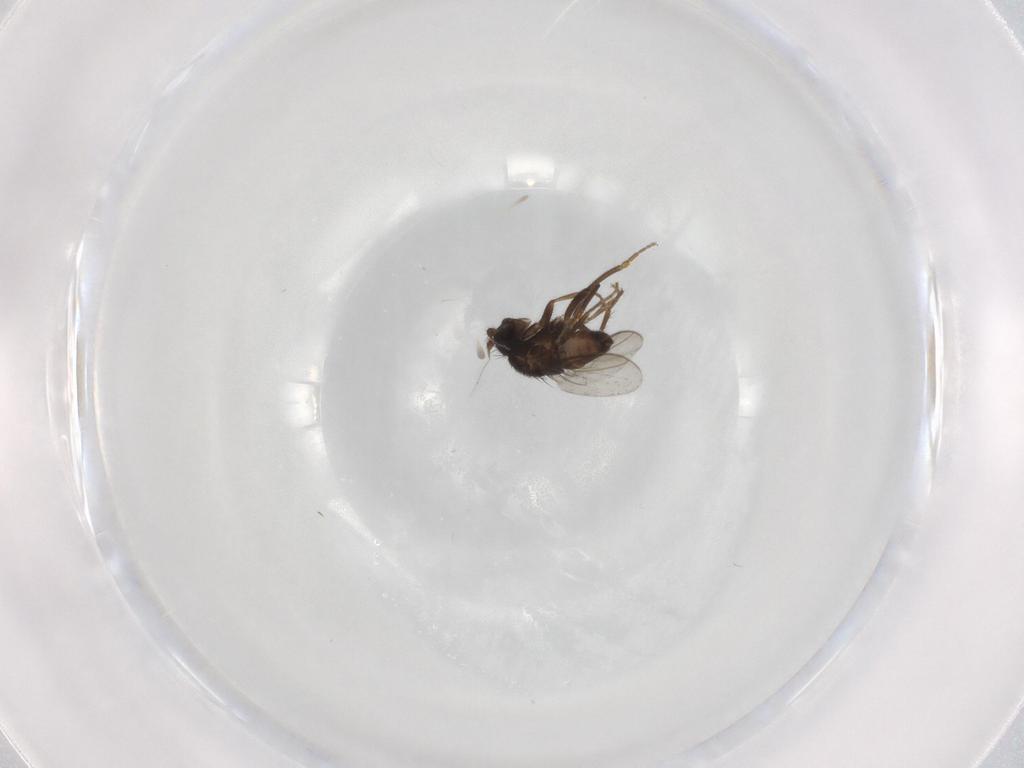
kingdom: Animalia
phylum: Arthropoda
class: Insecta
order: Diptera
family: Sphaeroceridae
